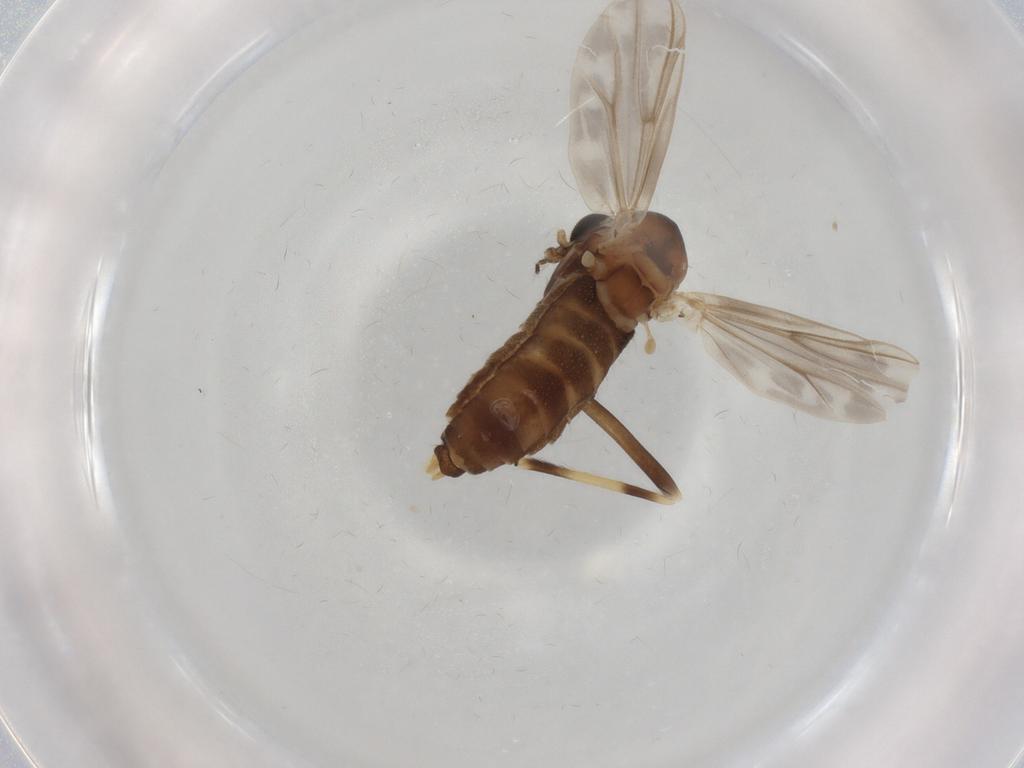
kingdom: Animalia
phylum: Arthropoda
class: Insecta
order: Diptera
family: Chironomidae
